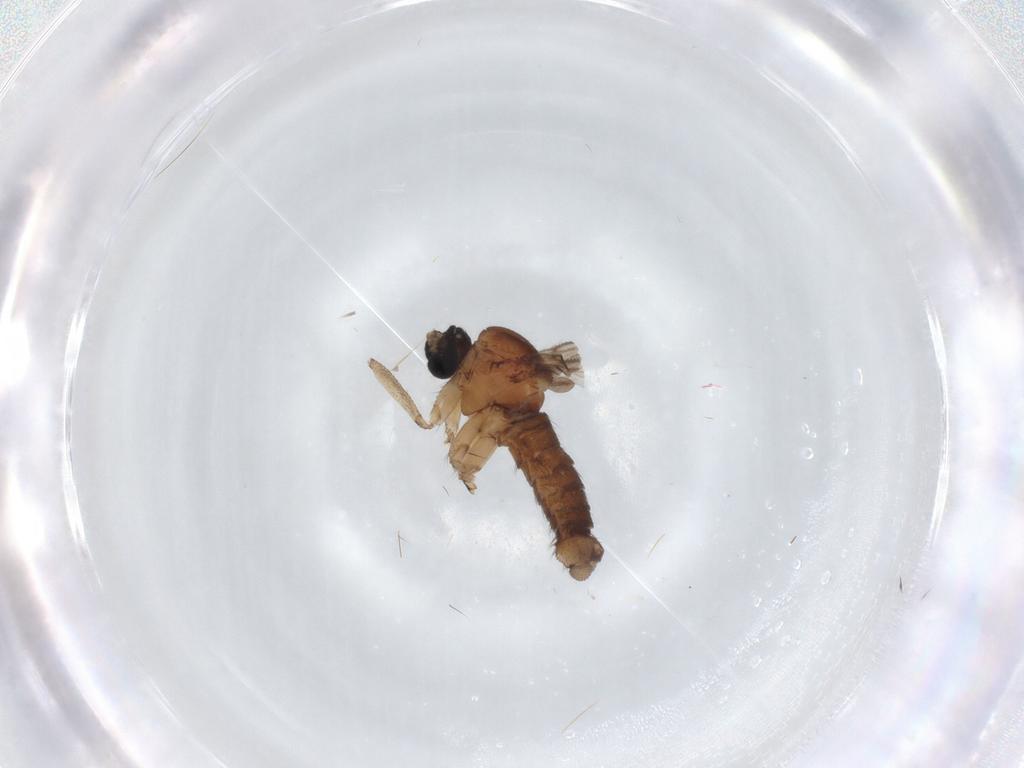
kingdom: Animalia
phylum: Arthropoda
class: Insecta
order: Diptera
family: Sciaridae
